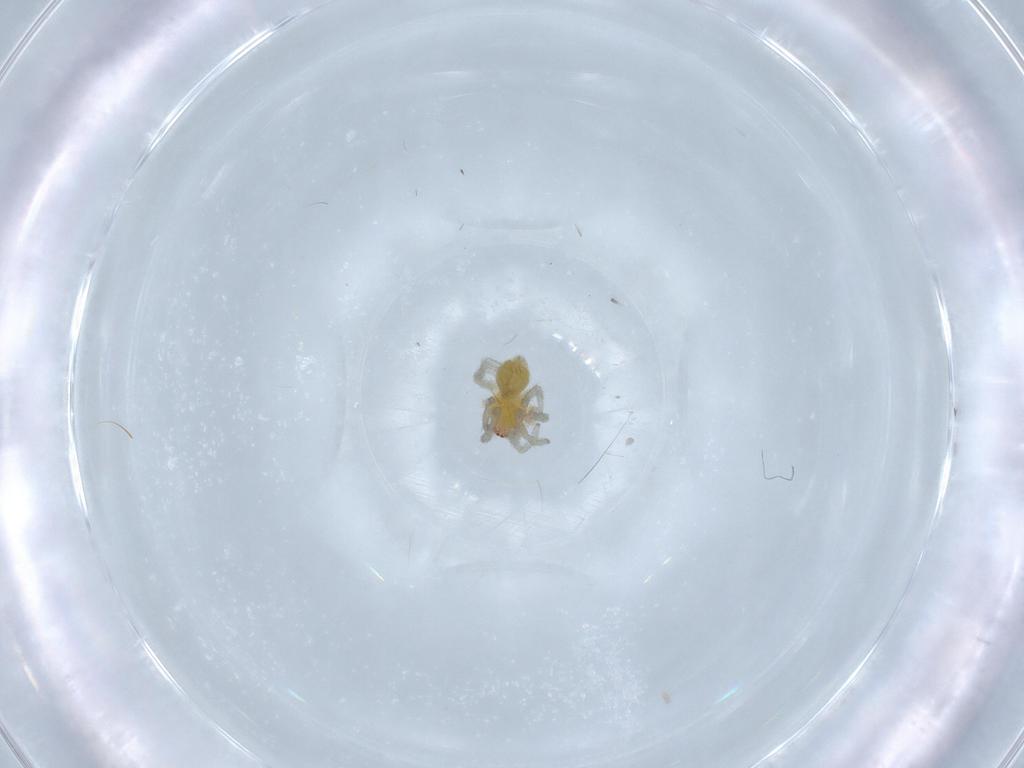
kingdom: Animalia
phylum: Arthropoda
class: Arachnida
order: Araneae
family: Dictynidae
